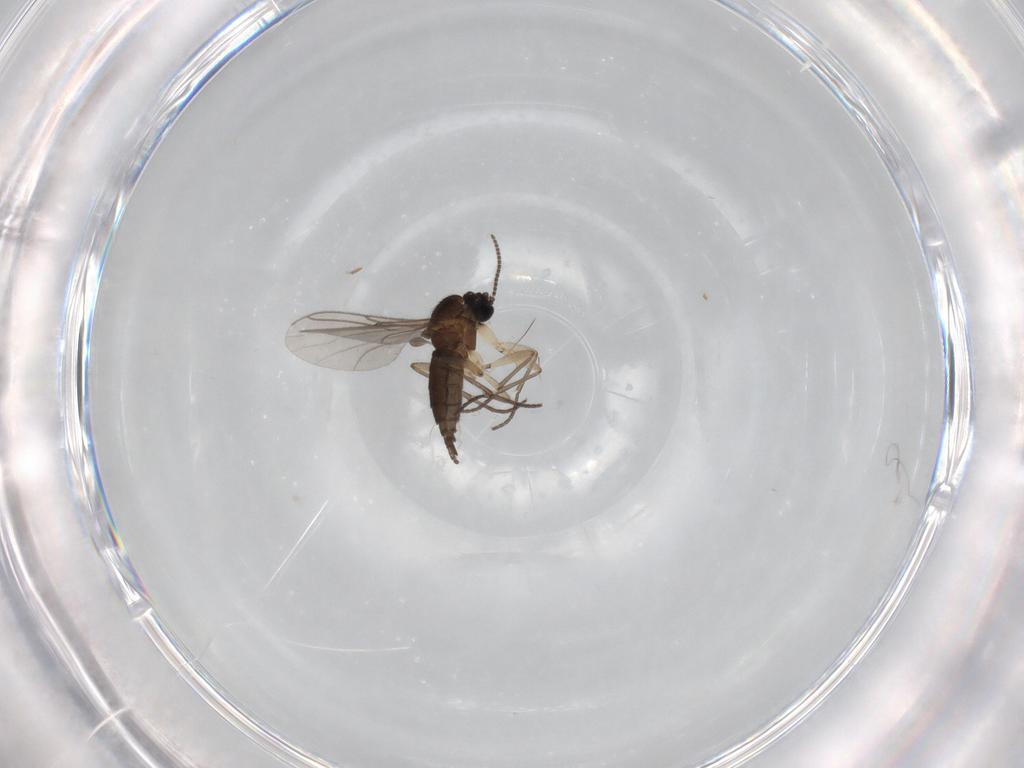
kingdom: Animalia
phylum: Arthropoda
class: Insecta
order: Diptera
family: Sciaridae
